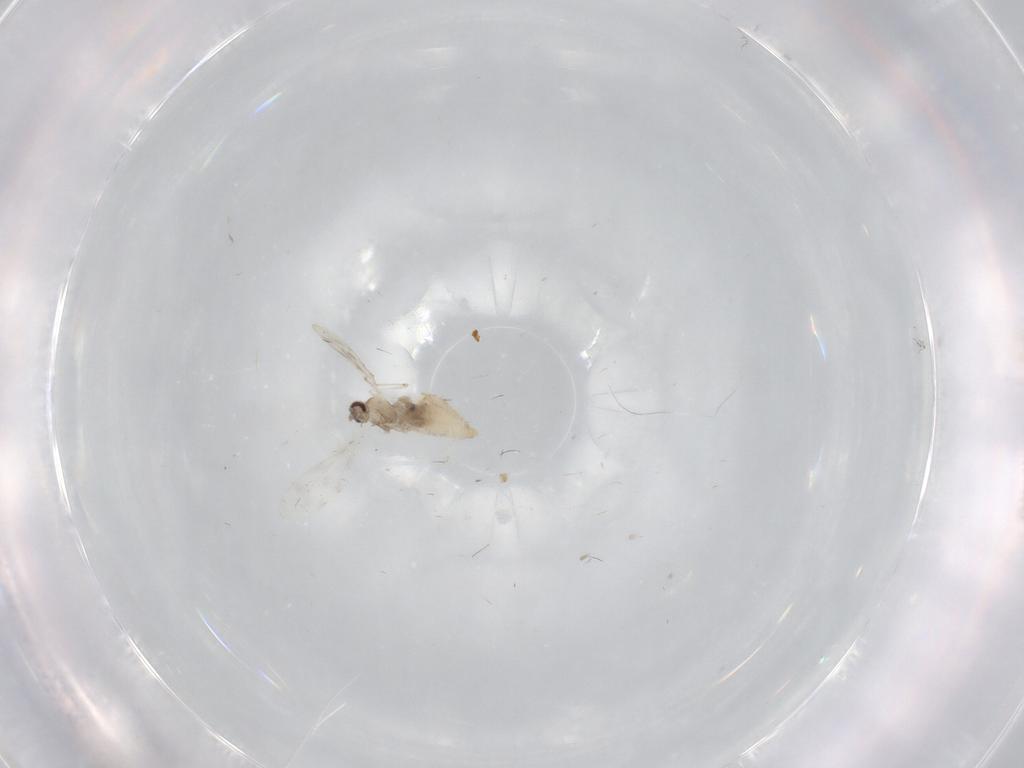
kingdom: Animalia
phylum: Arthropoda
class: Insecta
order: Diptera
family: Cecidomyiidae
